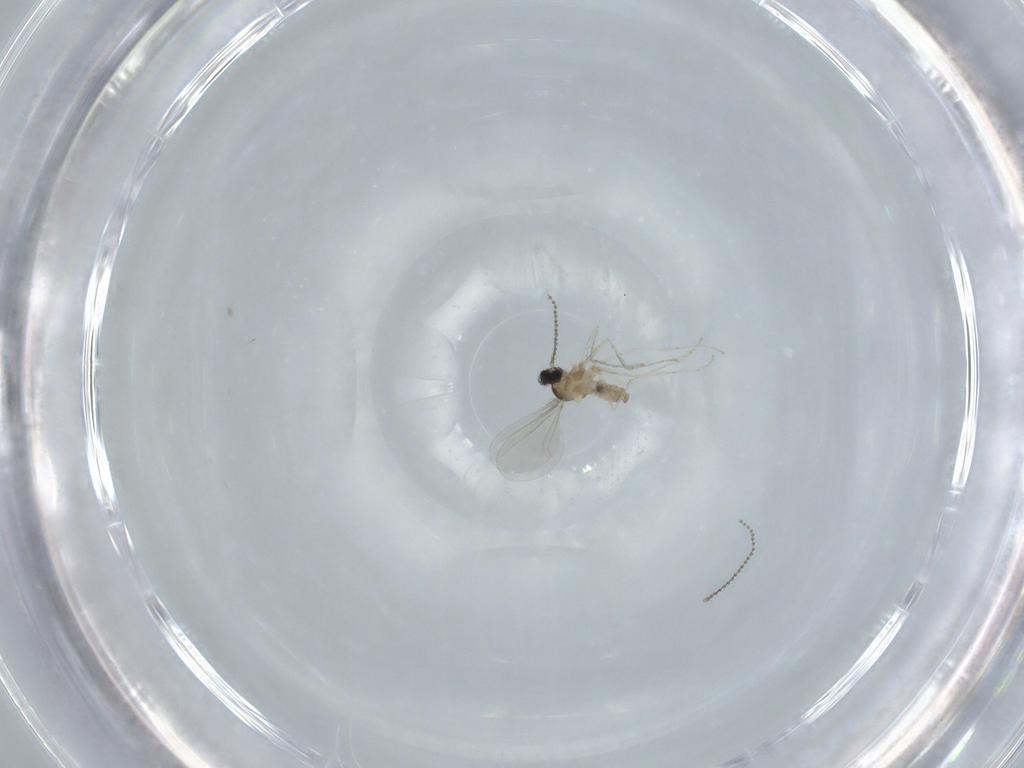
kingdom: Animalia
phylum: Arthropoda
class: Insecta
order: Diptera
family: Cecidomyiidae
